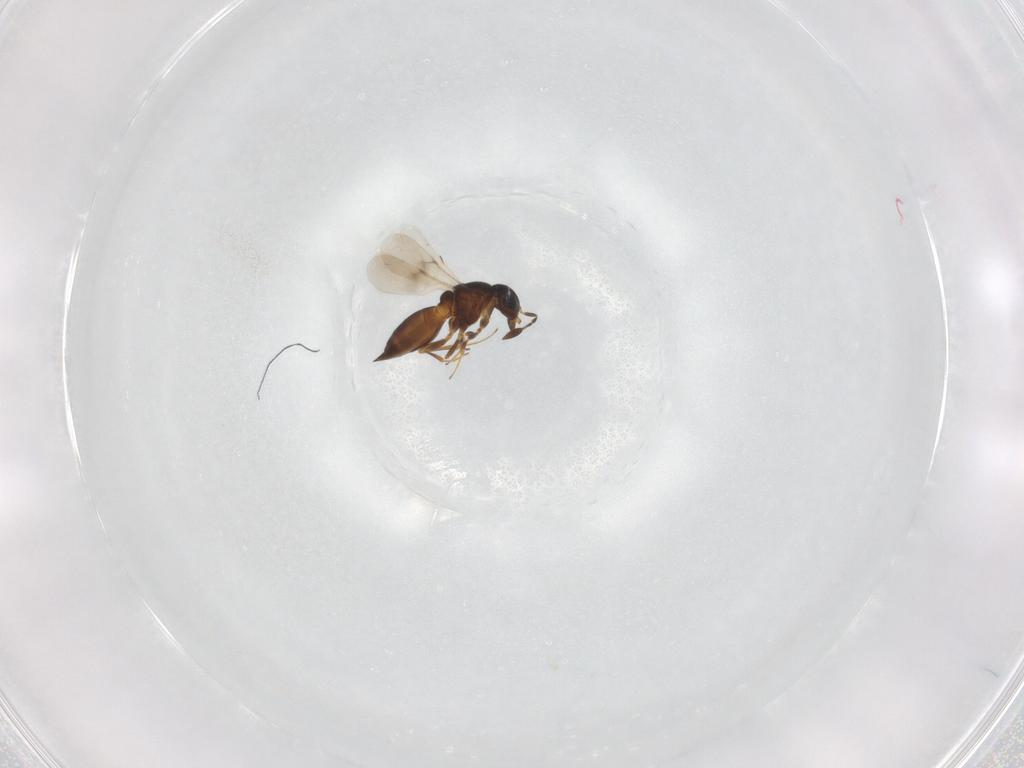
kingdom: Animalia
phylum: Arthropoda
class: Insecta
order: Hymenoptera
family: Scelionidae
